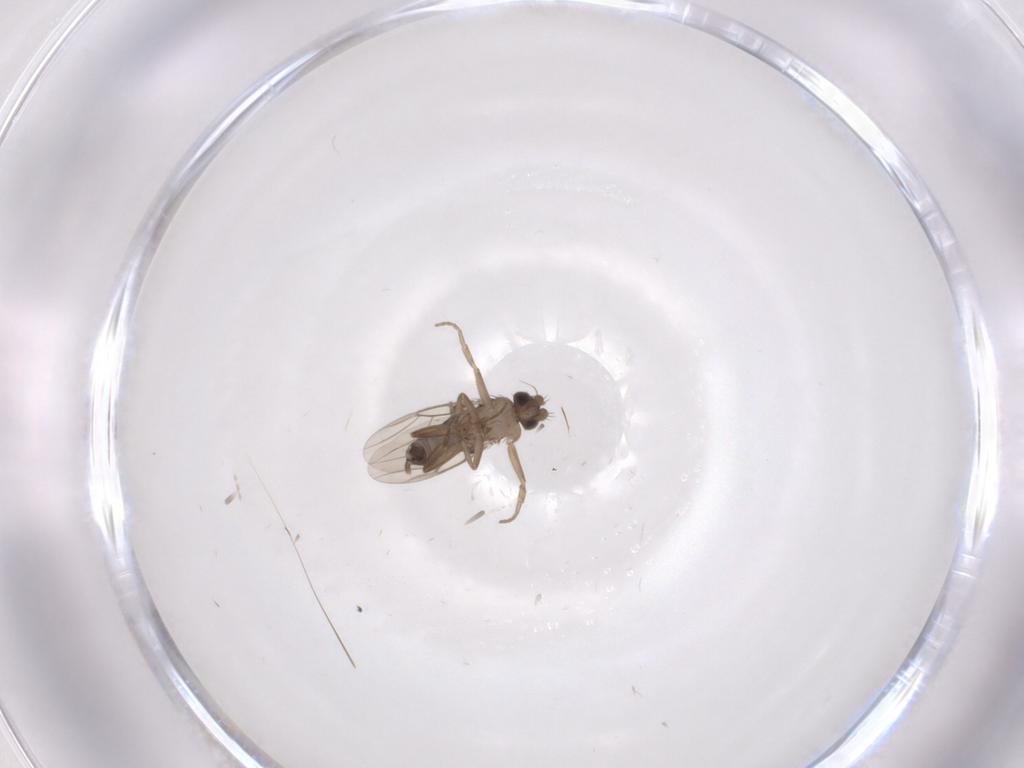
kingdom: Animalia
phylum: Arthropoda
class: Insecta
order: Diptera
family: Phoridae
